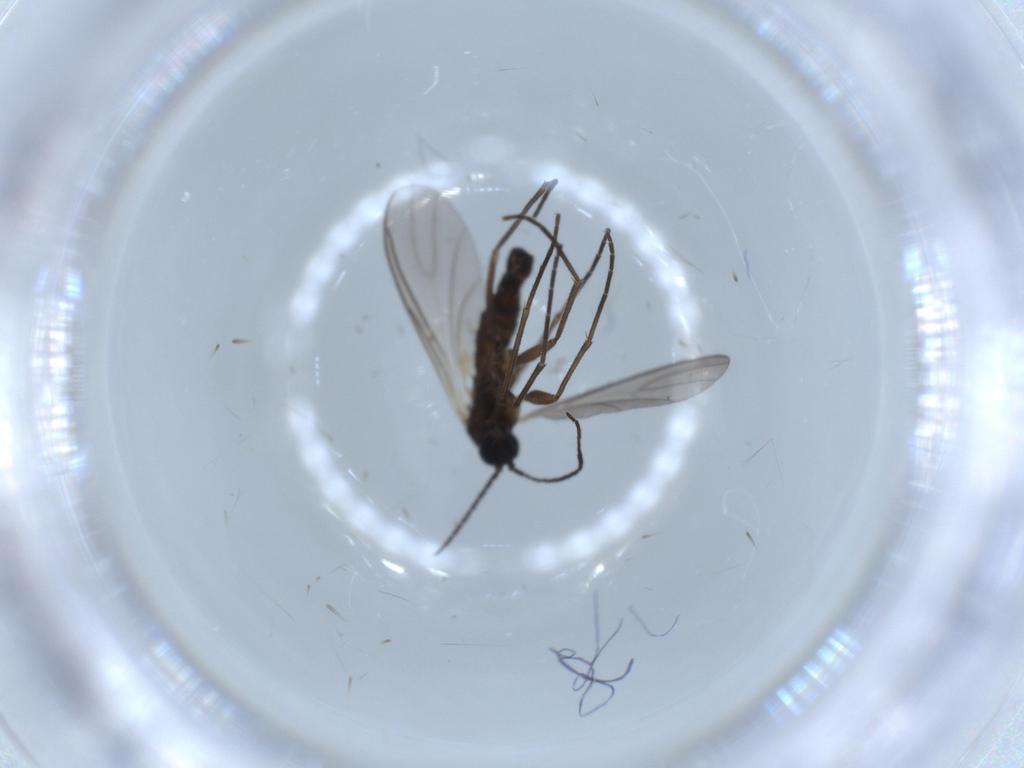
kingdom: Animalia
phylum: Arthropoda
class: Insecta
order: Diptera
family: Sciaridae
